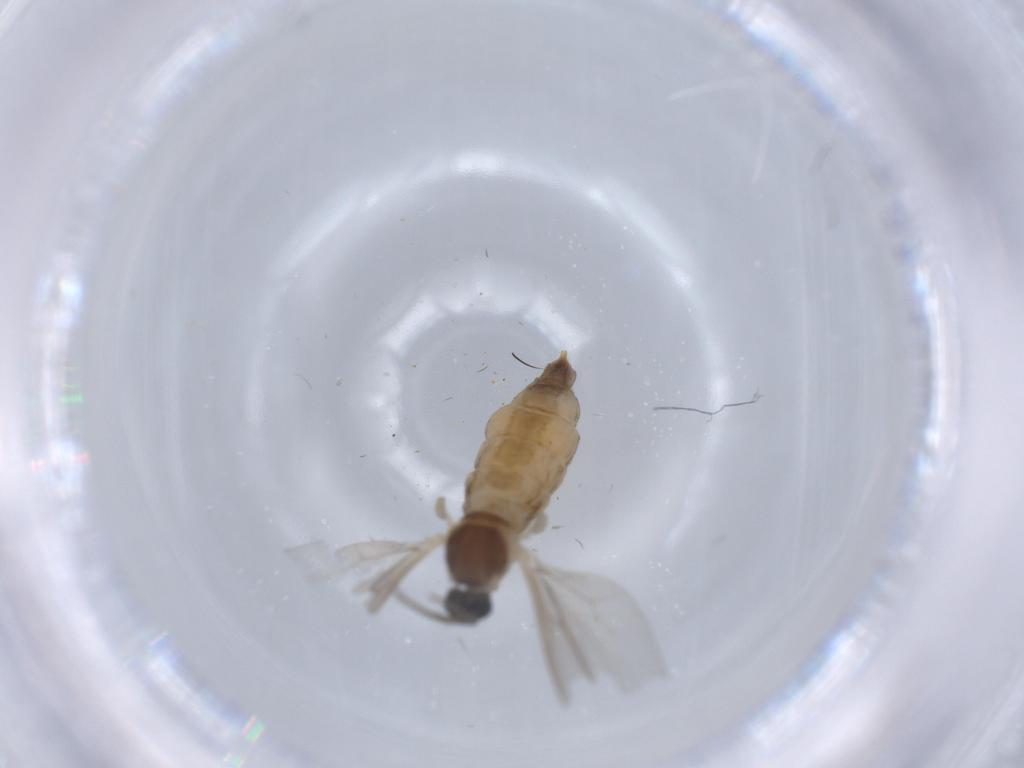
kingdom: Animalia
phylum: Arthropoda
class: Insecta
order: Diptera
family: Cecidomyiidae
